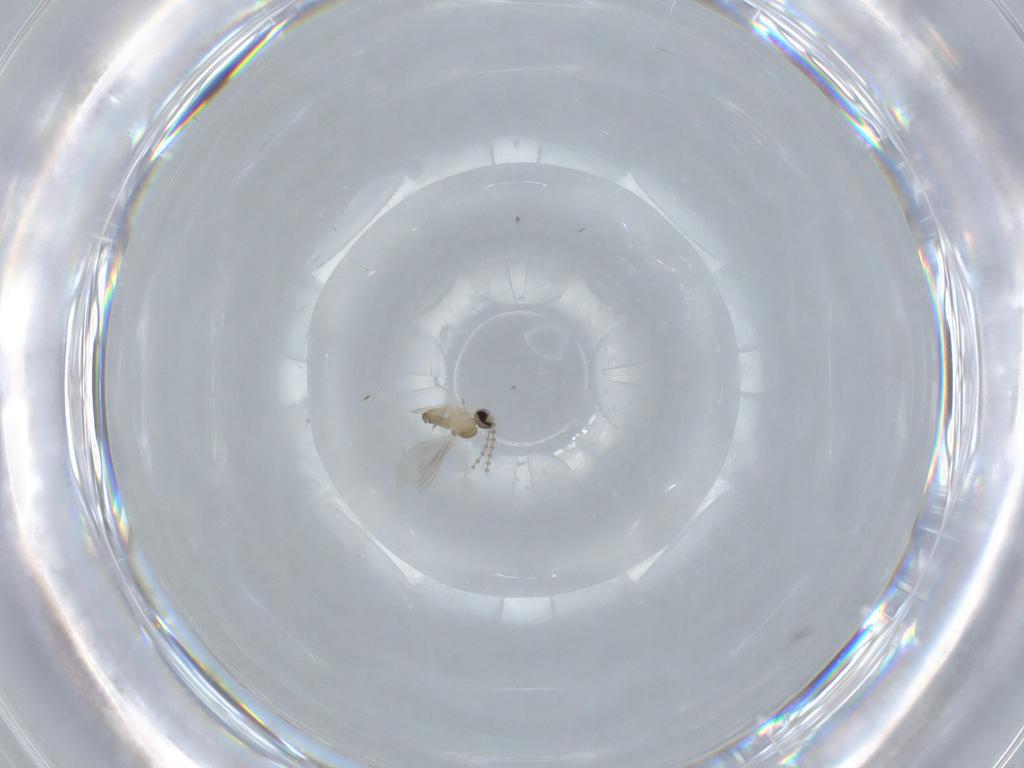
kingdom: Animalia
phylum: Arthropoda
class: Insecta
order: Diptera
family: Cecidomyiidae
